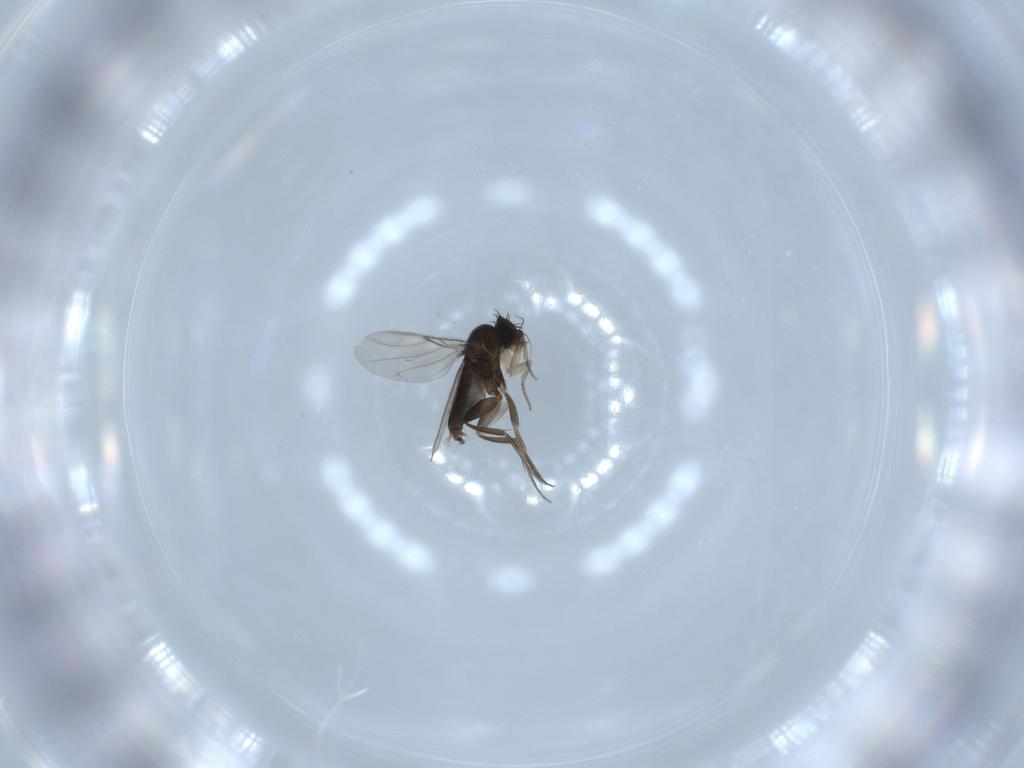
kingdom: Animalia
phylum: Arthropoda
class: Insecta
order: Diptera
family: Phoridae
